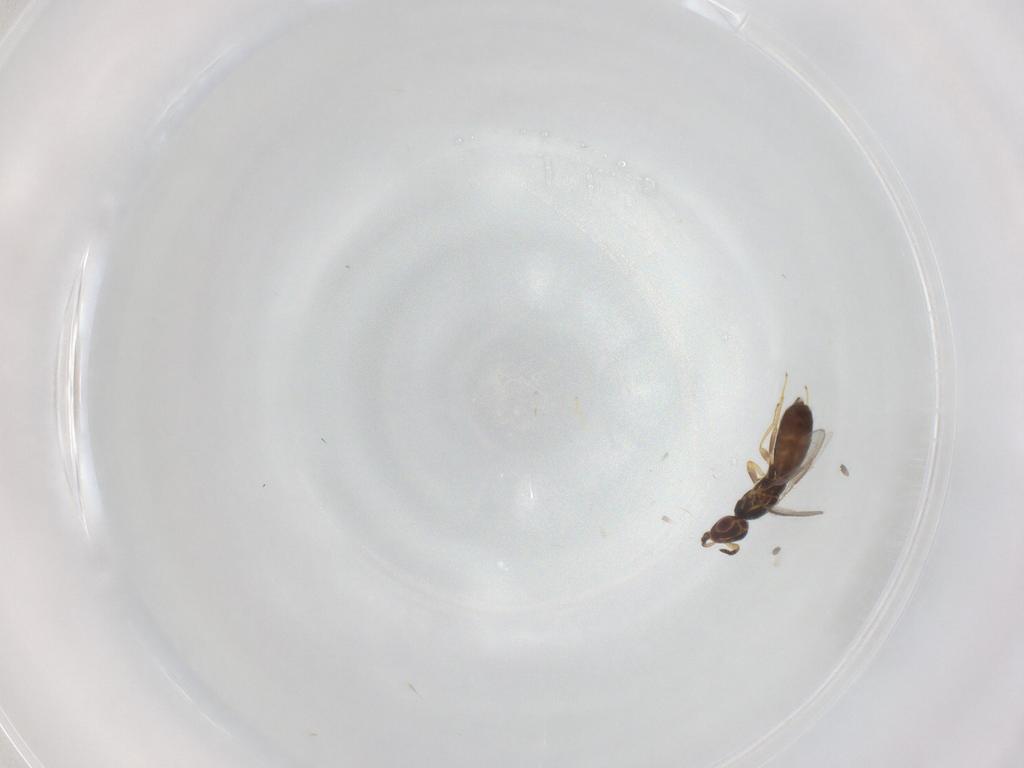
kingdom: Animalia
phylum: Arthropoda
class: Insecta
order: Hymenoptera
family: Eulophidae
